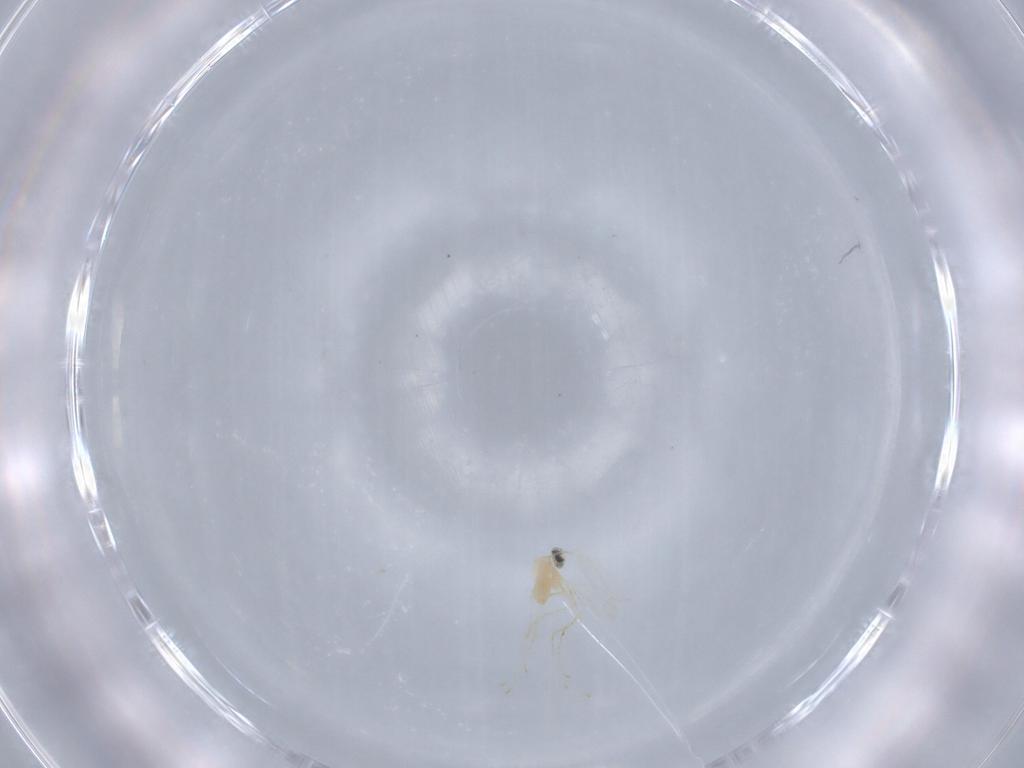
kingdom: Animalia
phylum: Arthropoda
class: Insecta
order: Diptera
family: Cecidomyiidae
